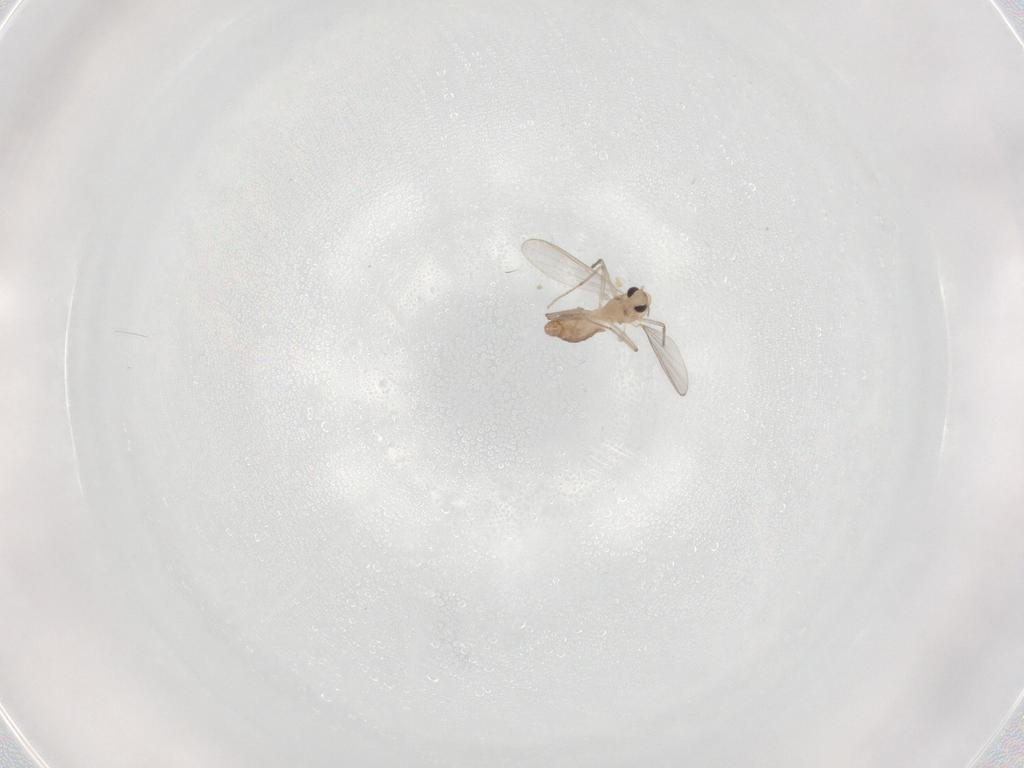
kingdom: Animalia
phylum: Arthropoda
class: Insecta
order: Diptera
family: Chironomidae
